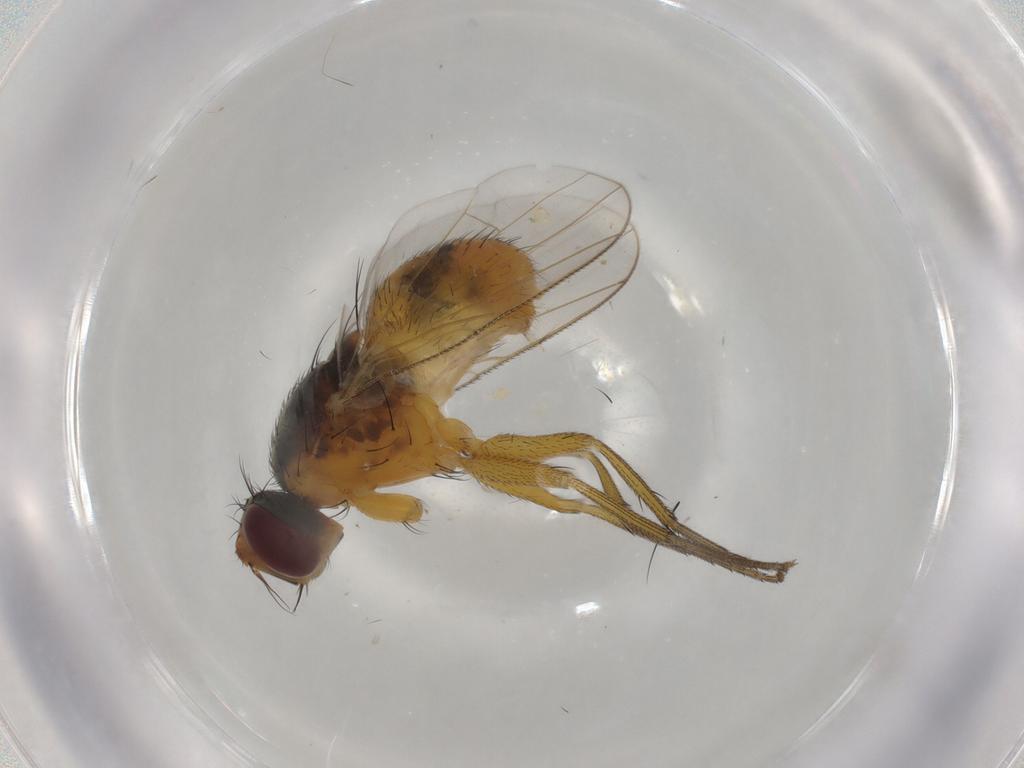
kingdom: Animalia
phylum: Arthropoda
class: Insecta
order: Diptera
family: Muscidae
